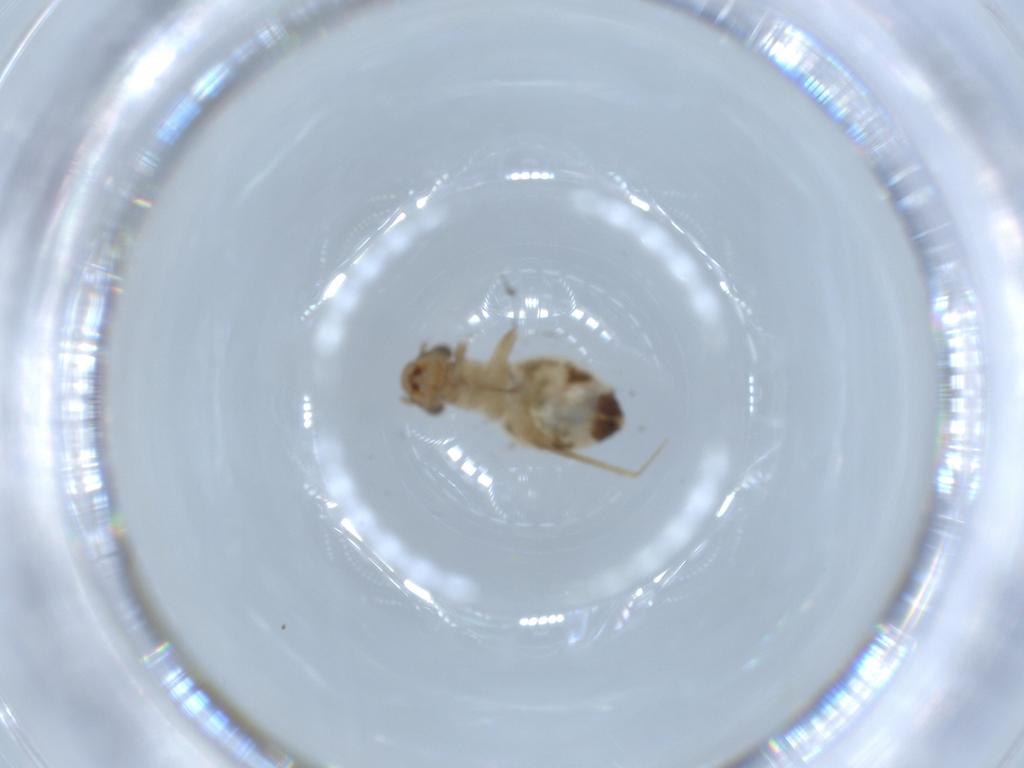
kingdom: Animalia
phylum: Arthropoda
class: Insecta
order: Psocodea
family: Lepidopsocidae
